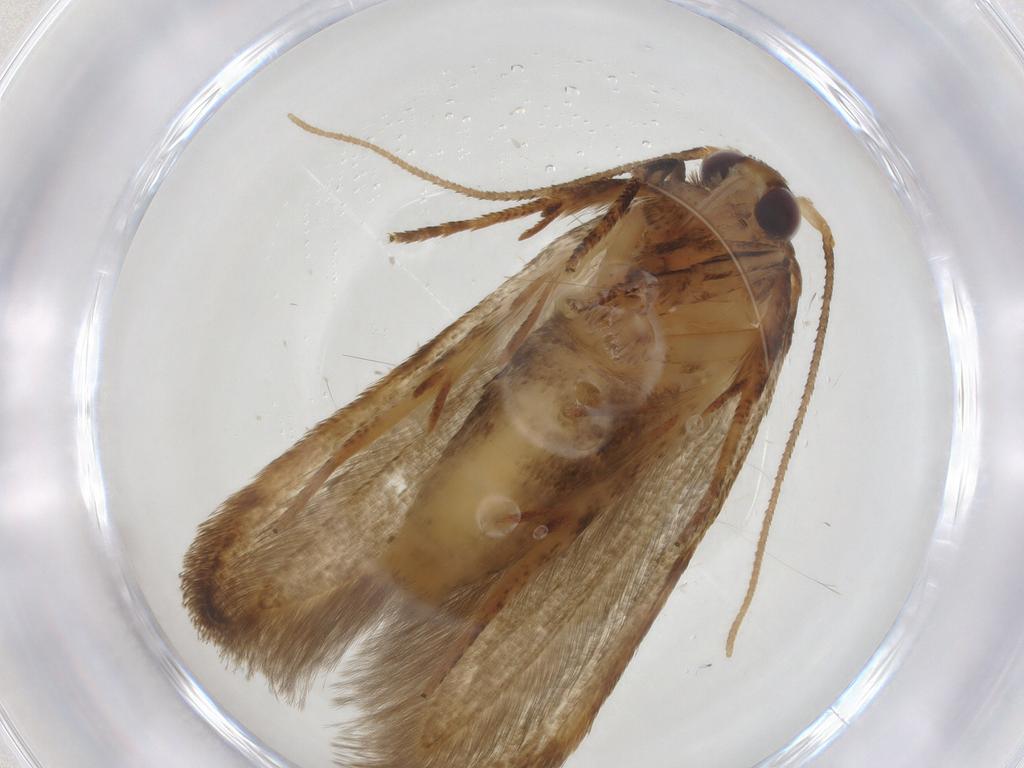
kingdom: Animalia
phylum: Arthropoda
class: Insecta
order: Lepidoptera
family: Blastobasidae
